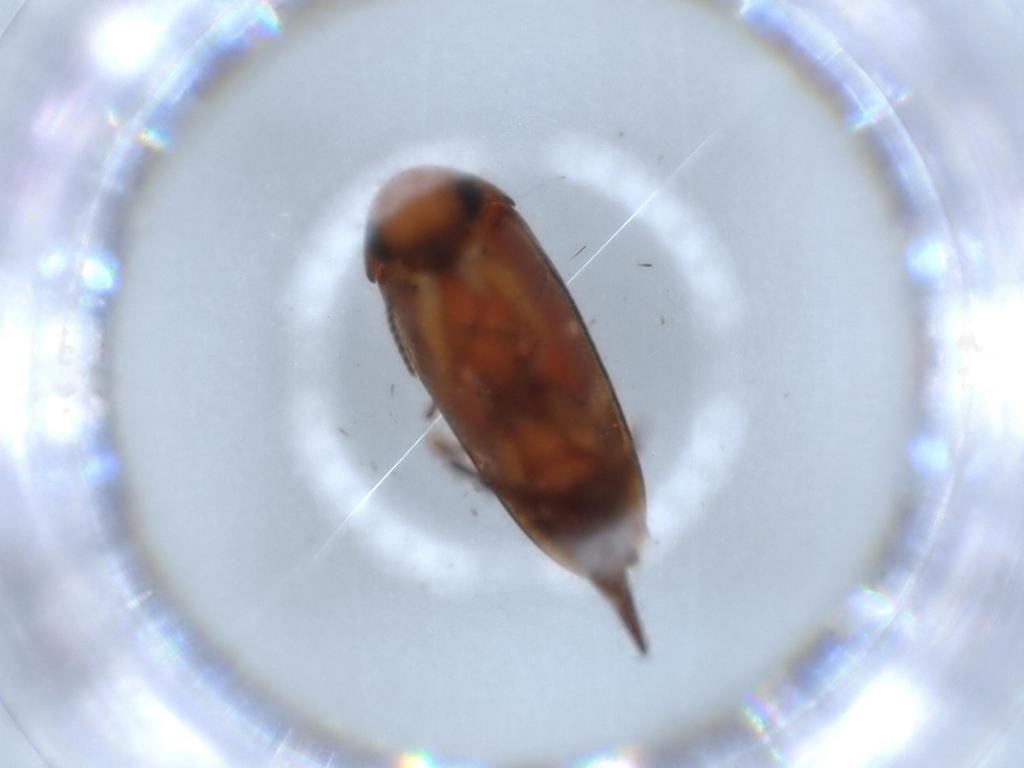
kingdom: Animalia
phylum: Arthropoda
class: Insecta
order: Coleoptera
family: Mordellidae
